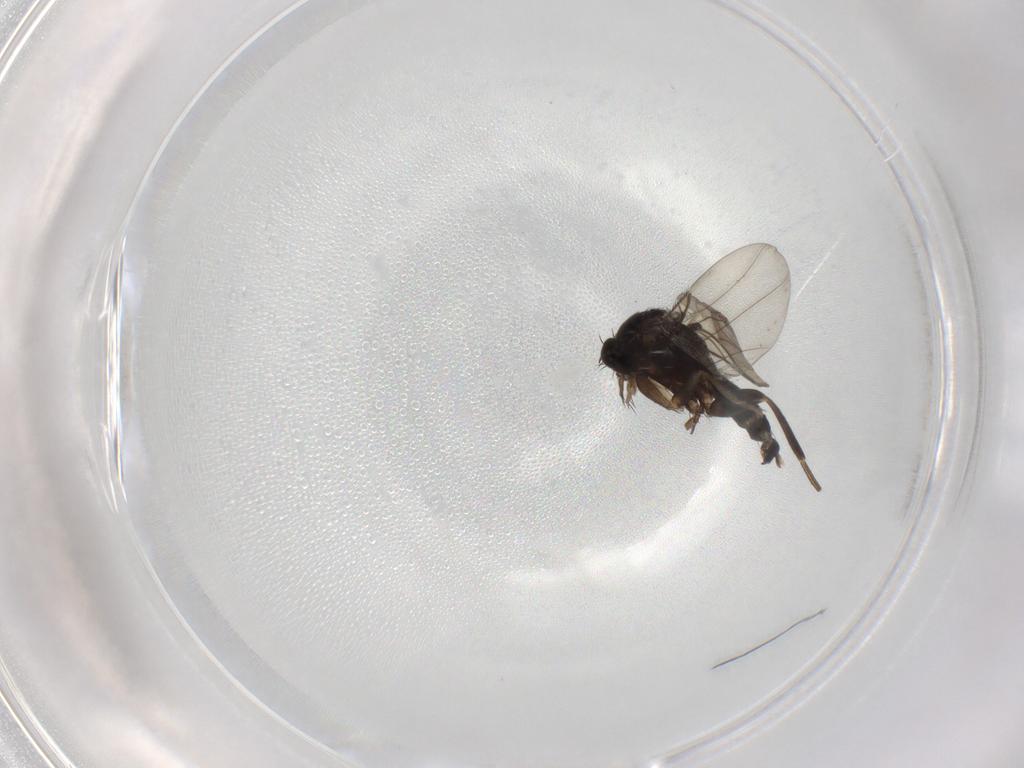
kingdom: Animalia
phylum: Arthropoda
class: Insecta
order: Diptera
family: Phoridae
